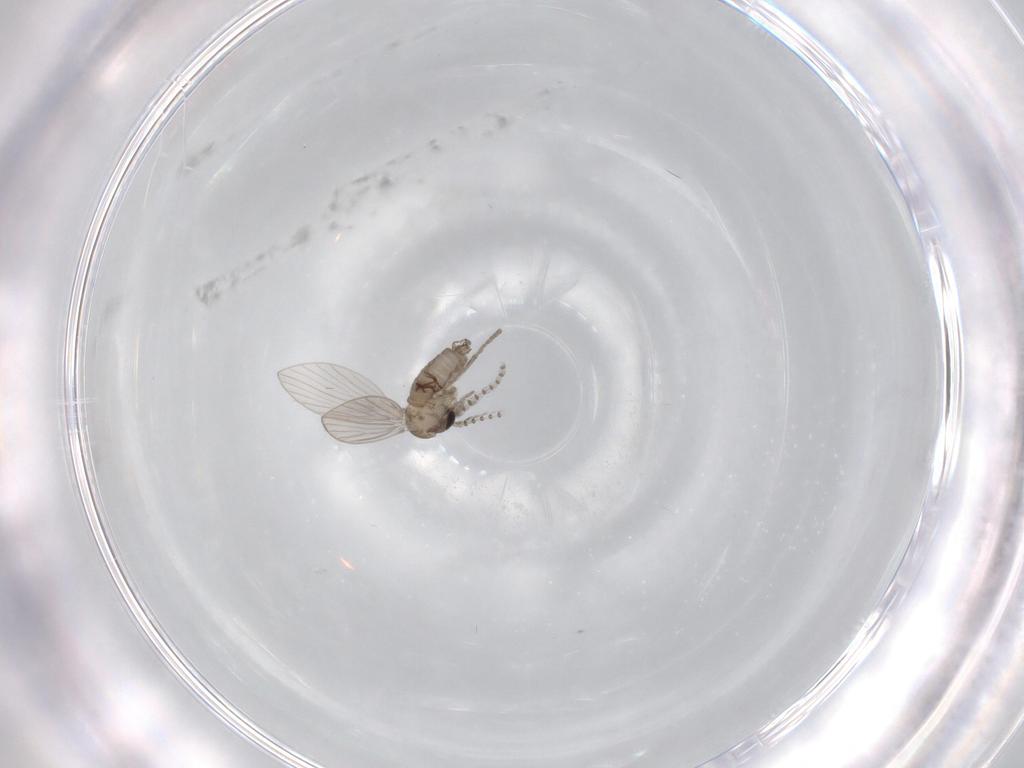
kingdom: Animalia
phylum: Arthropoda
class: Insecta
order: Diptera
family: Psychodidae
